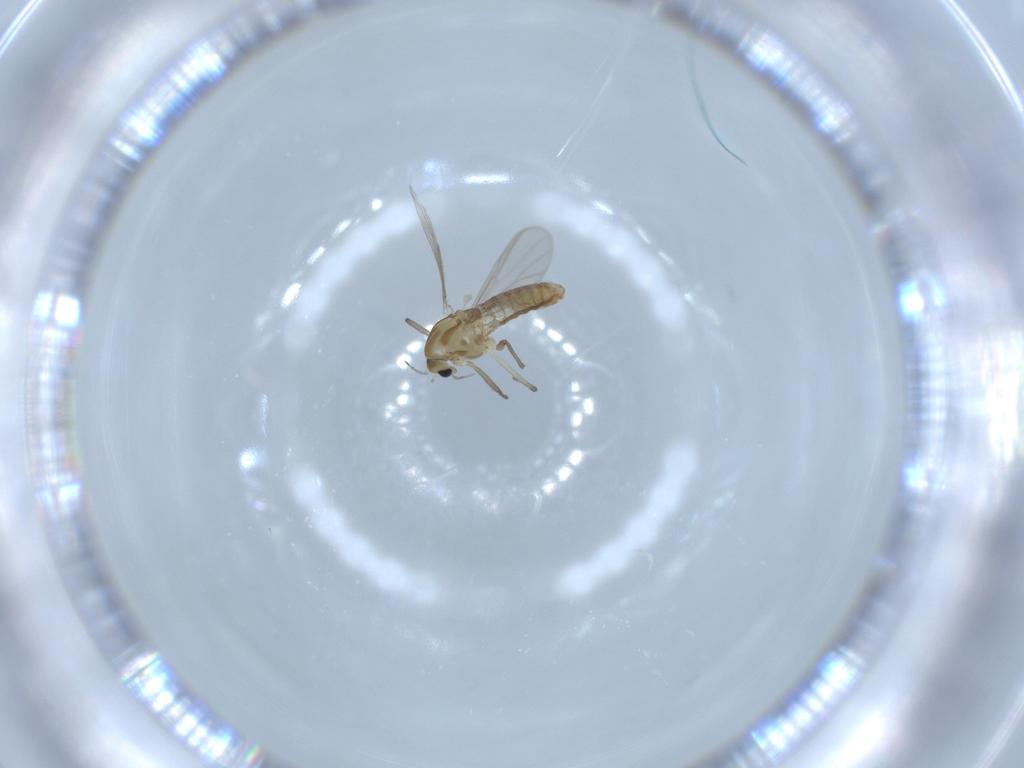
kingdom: Animalia
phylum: Arthropoda
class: Insecta
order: Diptera
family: Chironomidae
